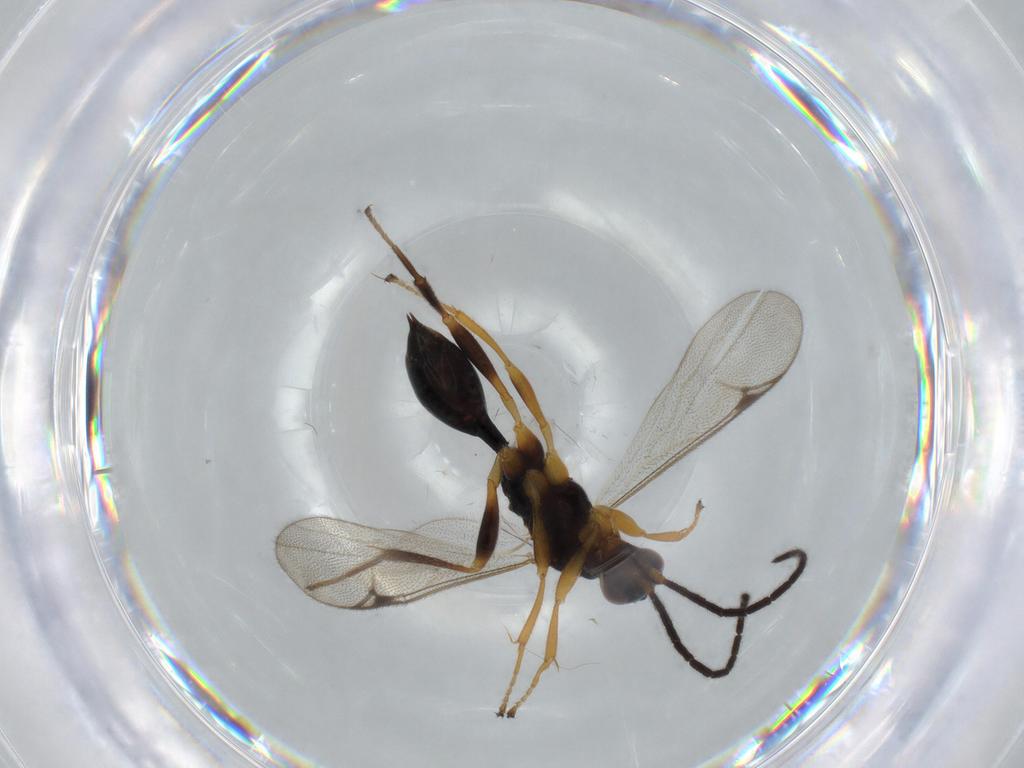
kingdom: Animalia
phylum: Arthropoda
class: Insecta
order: Hymenoptera
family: Proctotrupidae
